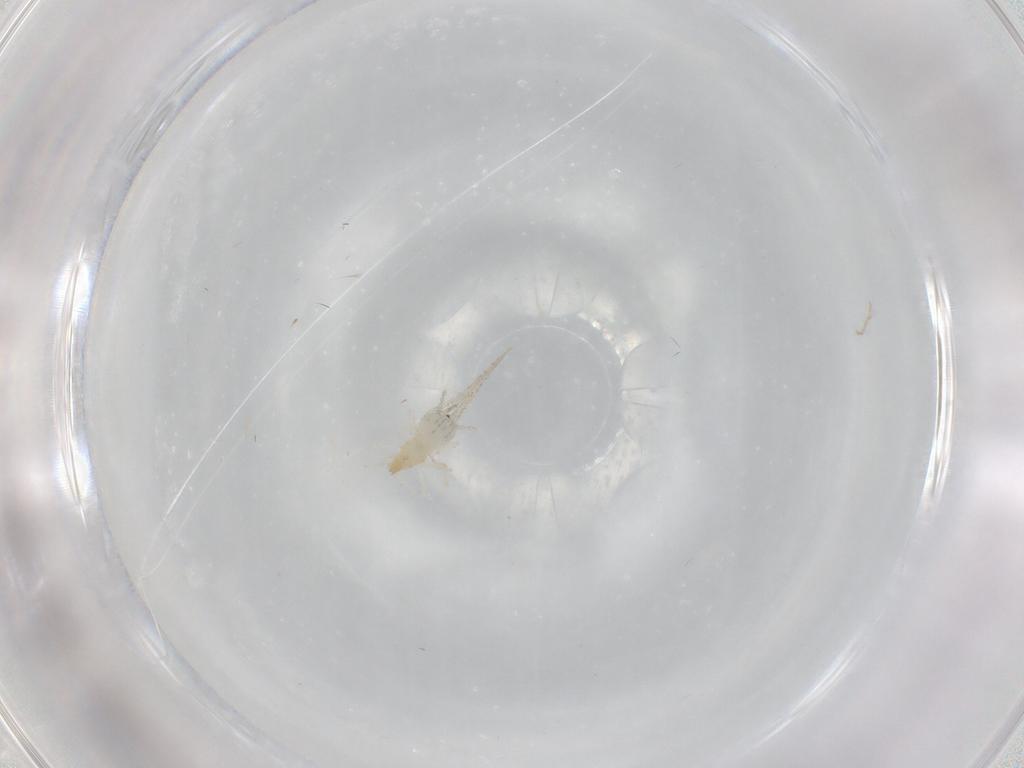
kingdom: Animalia
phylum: Arthropoda
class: Insecta
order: Diptera
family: Cecidomyiidae
